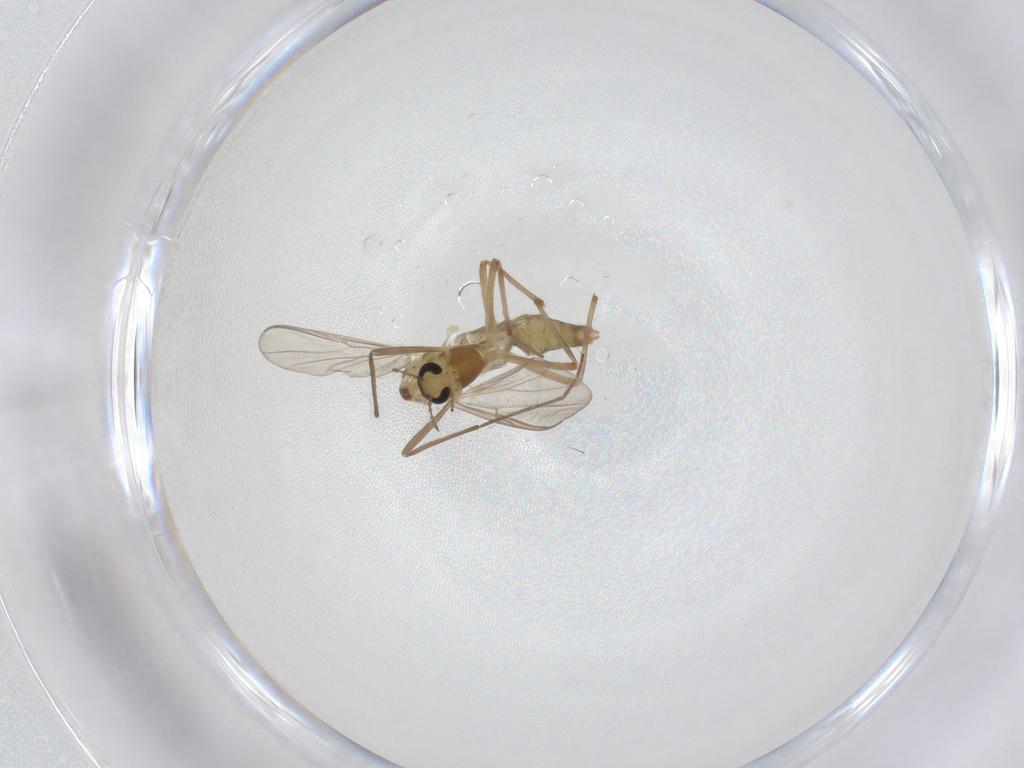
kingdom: Animalia
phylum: Arthropoda
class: Insecta
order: Diptera
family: Chironomidae
